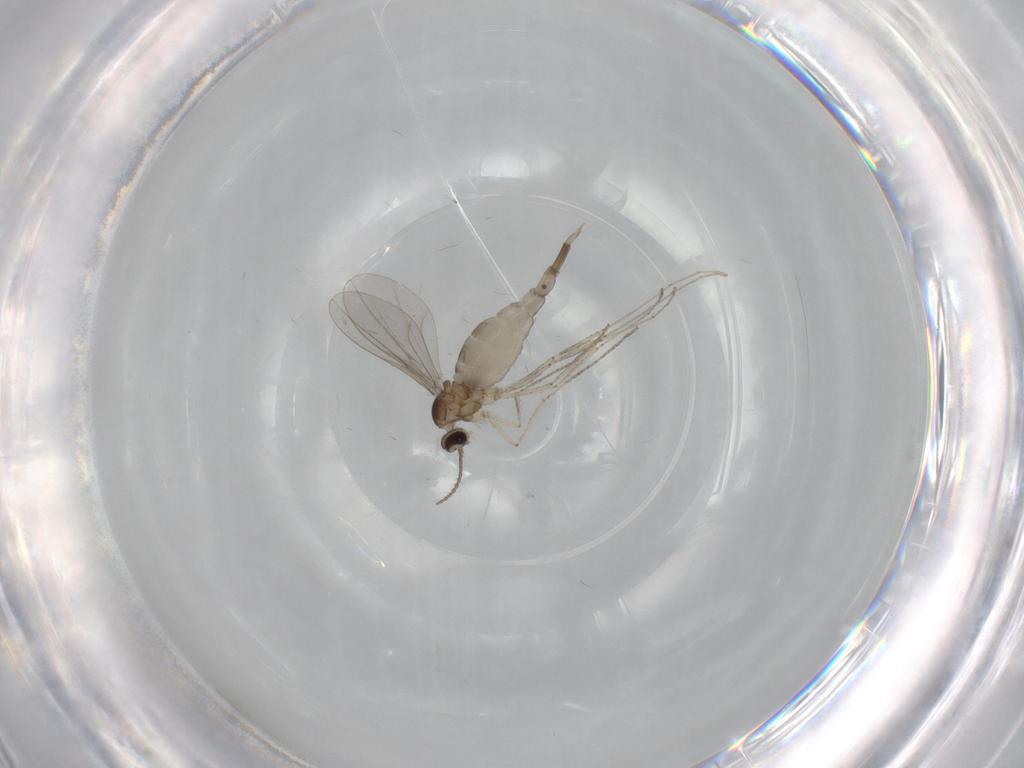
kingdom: Animalia
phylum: Arthropoda
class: Insecta
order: Diptera
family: Cecidomyiidae
